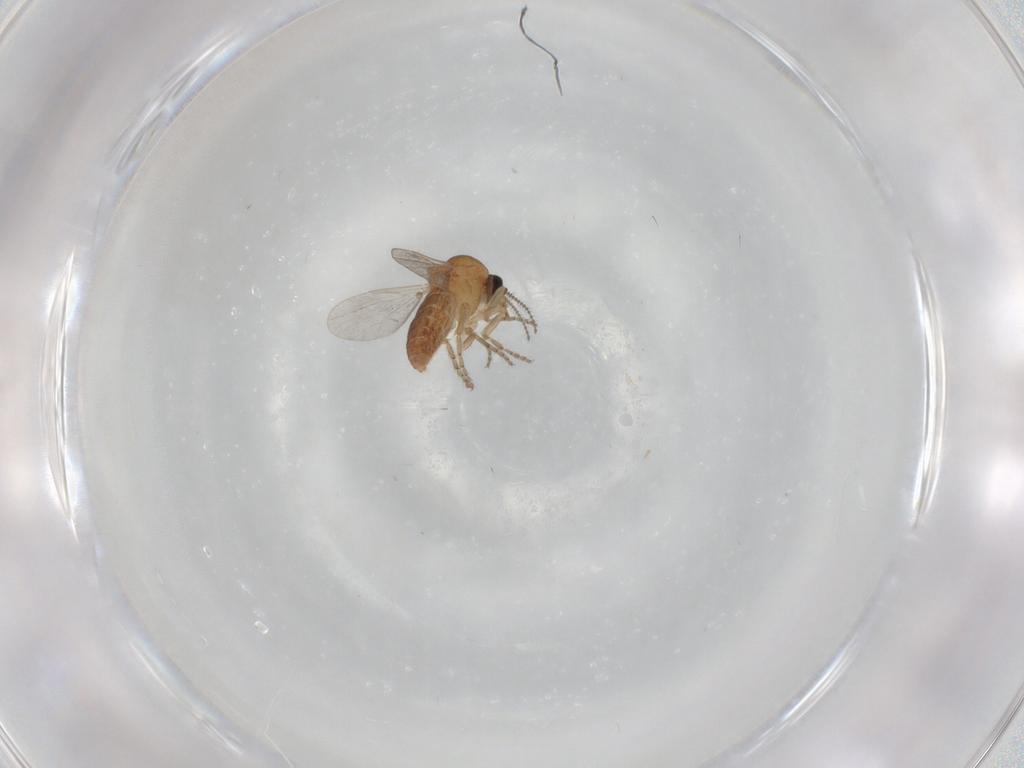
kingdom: Animalia
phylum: Arthropoda
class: Insecta
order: Diptera
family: Ceratopogonidae
